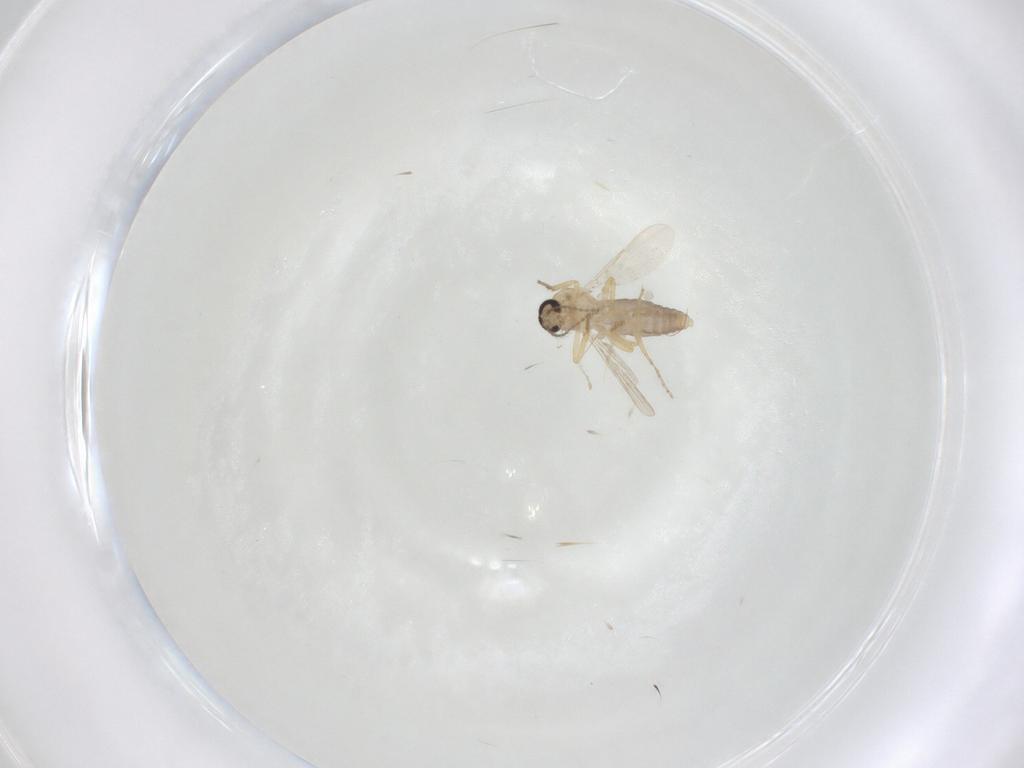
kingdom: Animalia
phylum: Arthropoda
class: Insecta
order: Diptera
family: Ceratopogonidae
